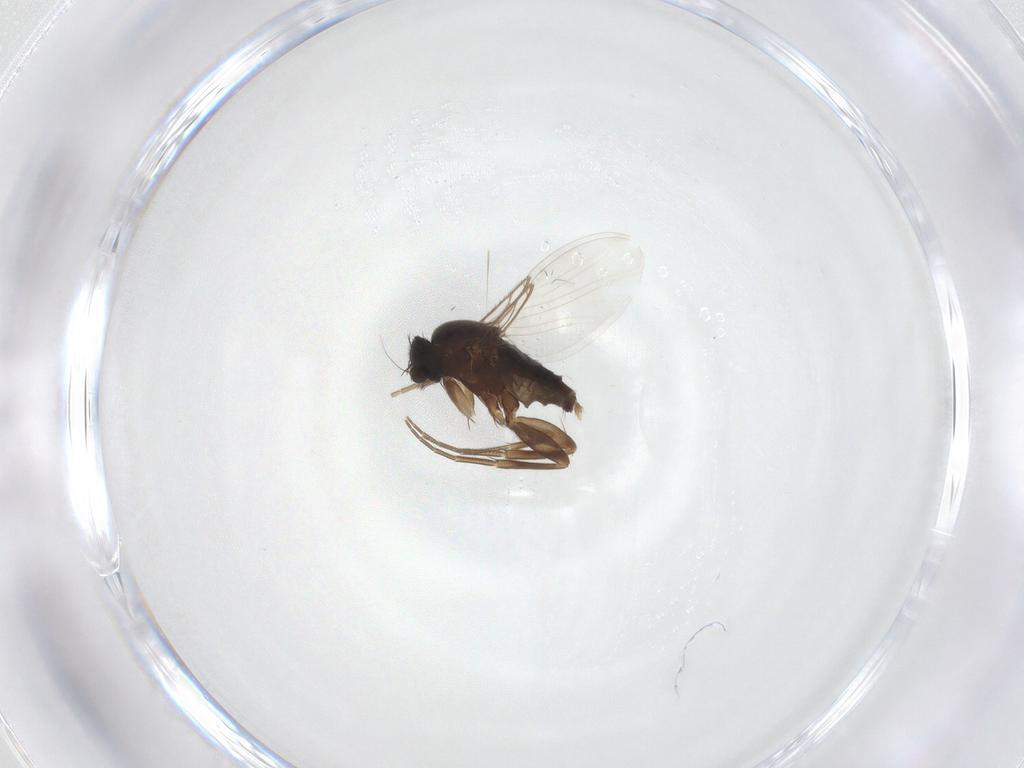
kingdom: Animalia
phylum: Arthropoda
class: Insecta
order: Diptera
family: Phoridae
